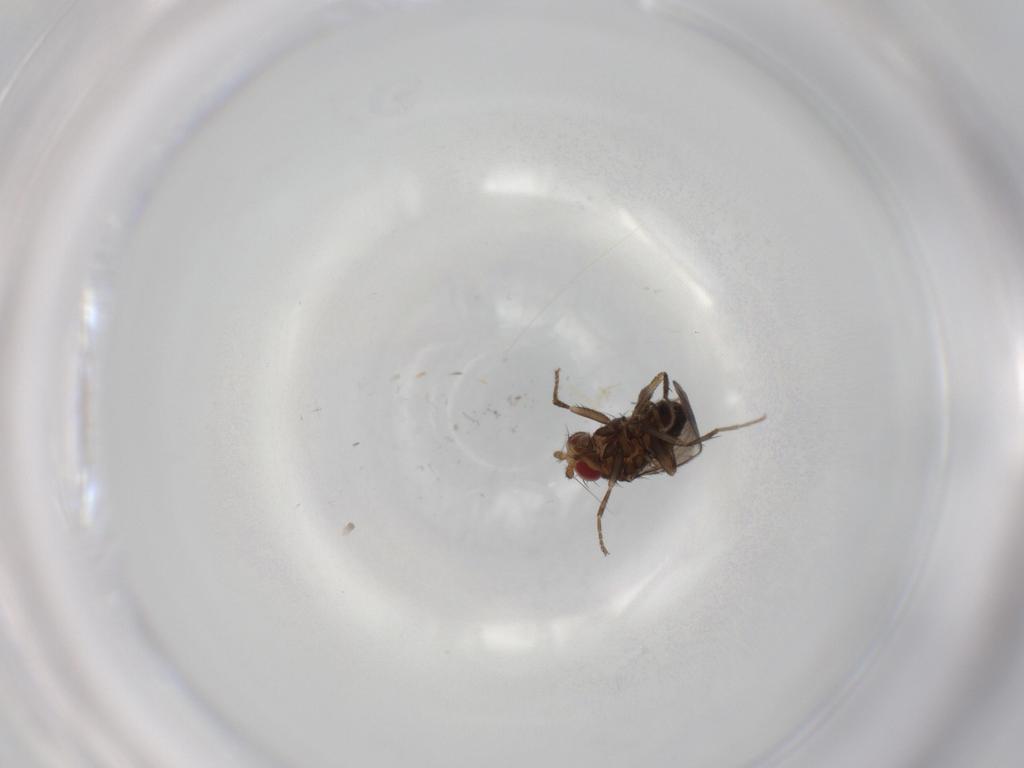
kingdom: Animalia
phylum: Arthropoda
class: Insecta
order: Diptera
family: Sphaeroceridae
